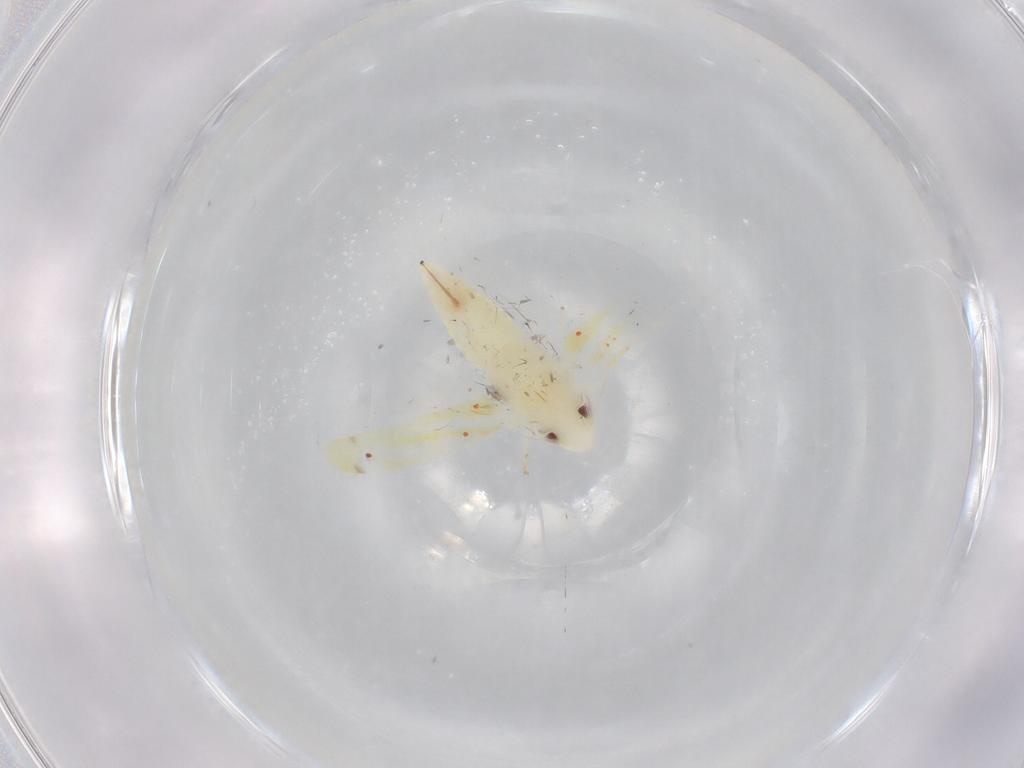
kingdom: Animalia
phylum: Arthropoda
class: Insecta
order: Hemiptera
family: Cicadellidae
